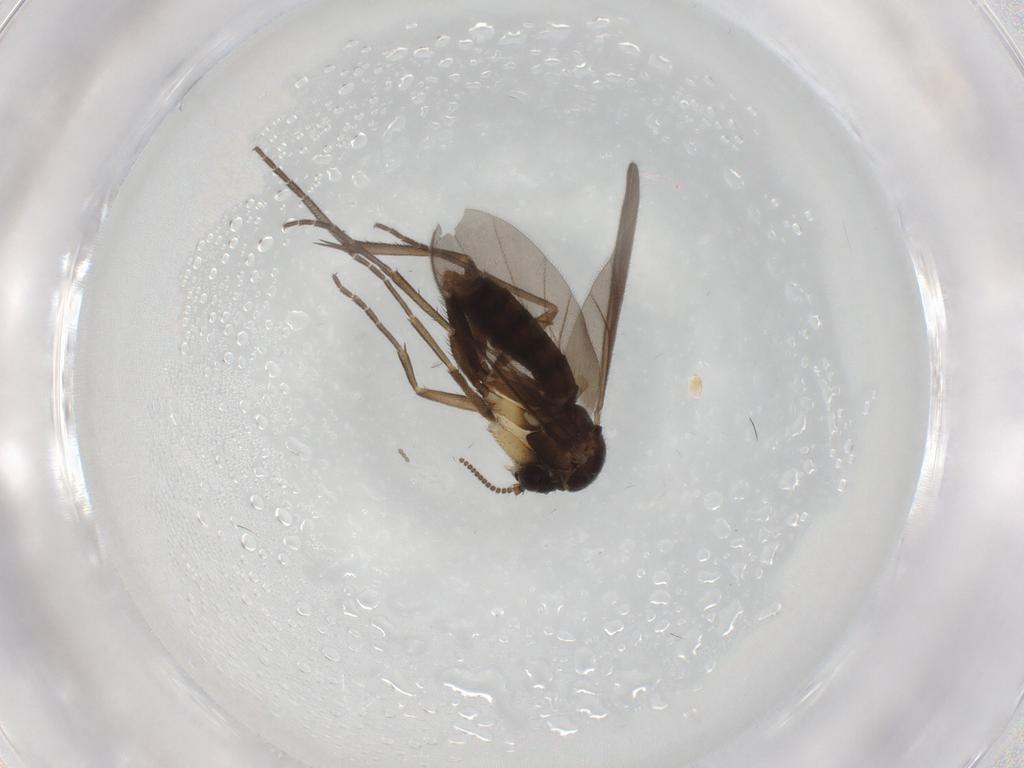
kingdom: Animalia
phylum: Arthropoda
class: Insecta
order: Diptera
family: Mycetophilidae
